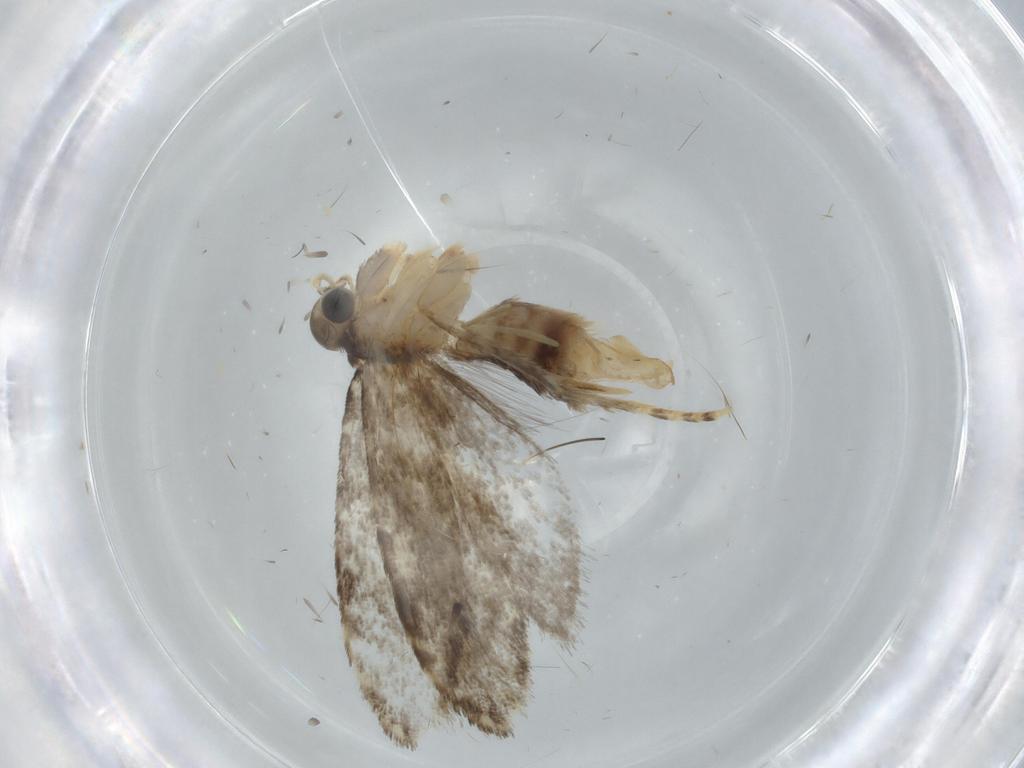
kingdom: Animalia
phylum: Arthropoda
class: Insecta
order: Lepidoptera
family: Tineidae
